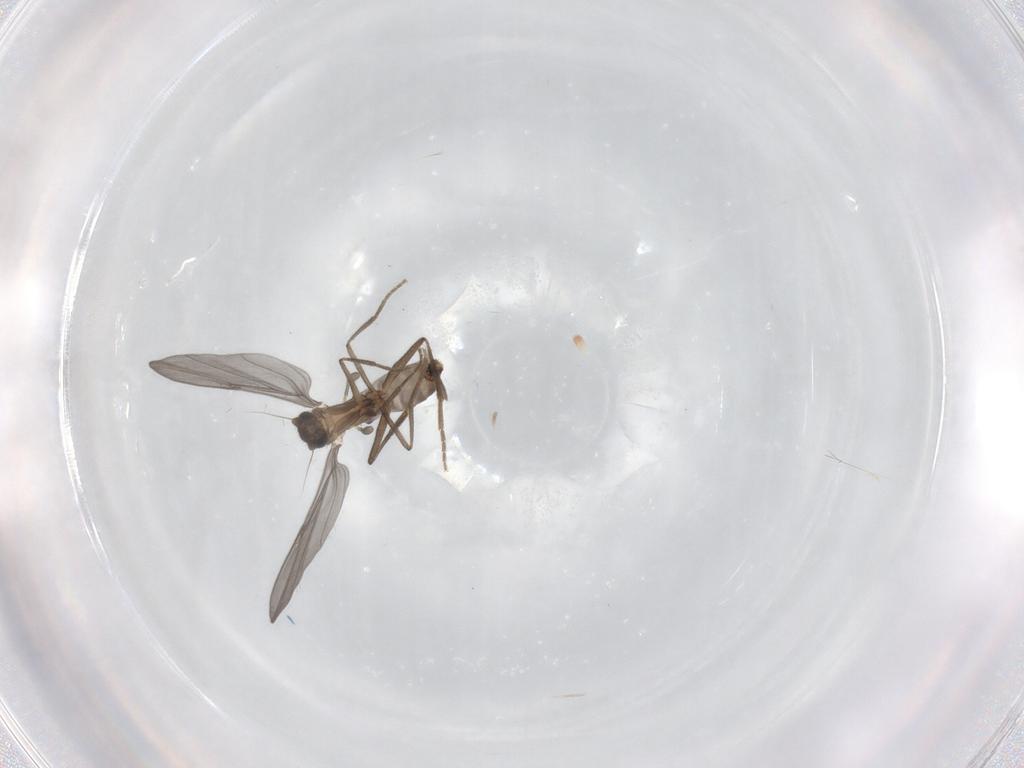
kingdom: Animalia
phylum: Arthropoda
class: Insecta
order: Diptera
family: Phoridae
